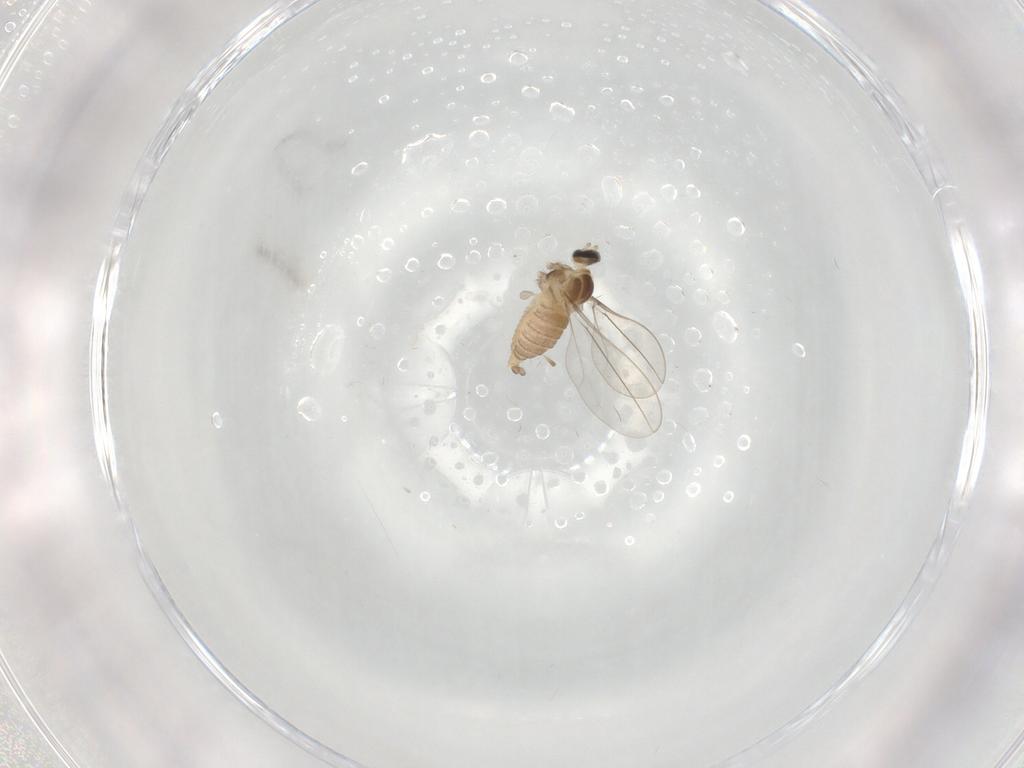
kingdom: Animalia
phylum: Arthropoda
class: Insecta
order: Diptera
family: Cecidomyiidae
